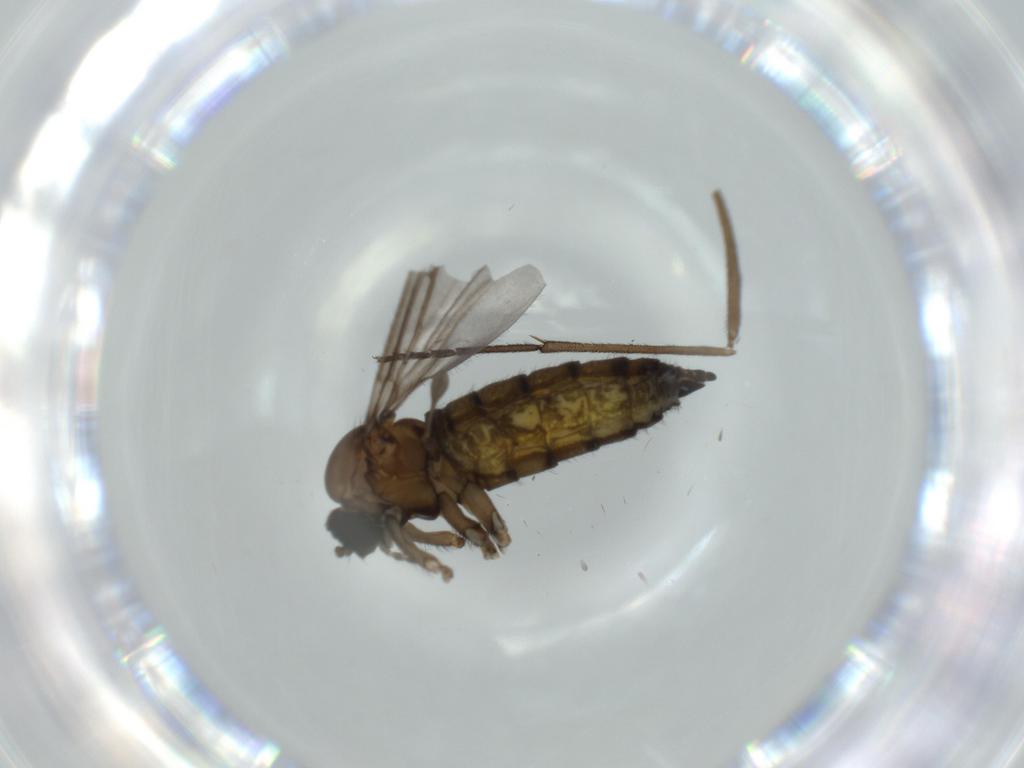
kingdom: Animalia
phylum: Arthropoda
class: Insecta
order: Diptera
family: Sciaridae
